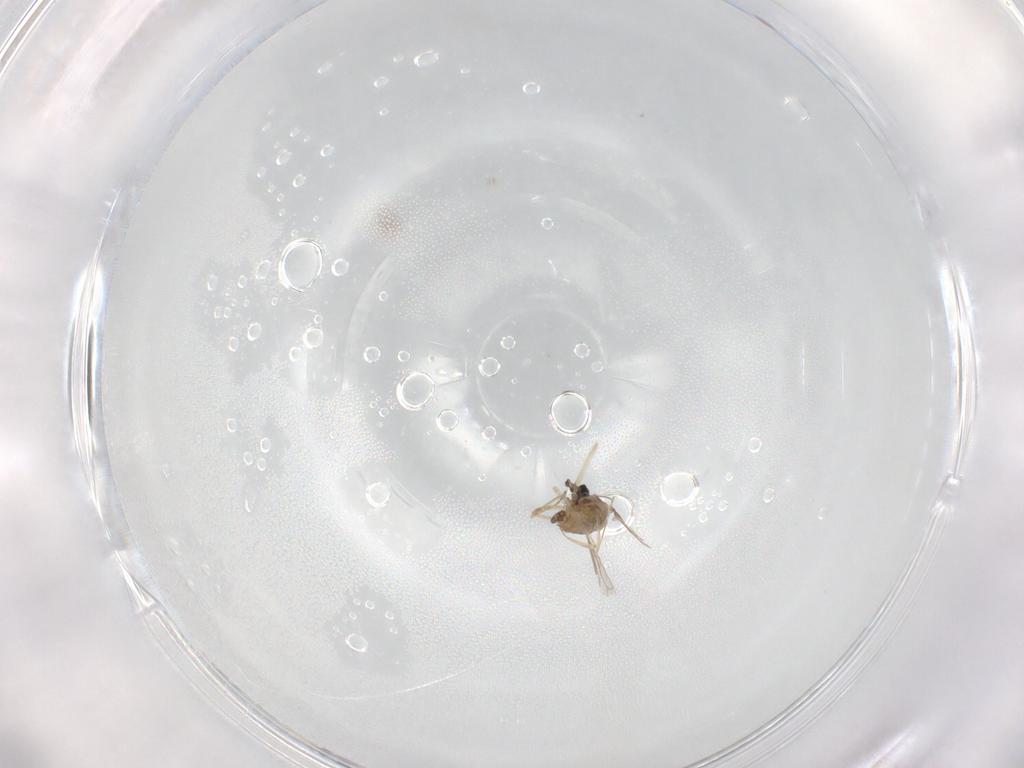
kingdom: Animalia
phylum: Arthropoda
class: Insecta
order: Diptera
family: Cecidomyiidae
